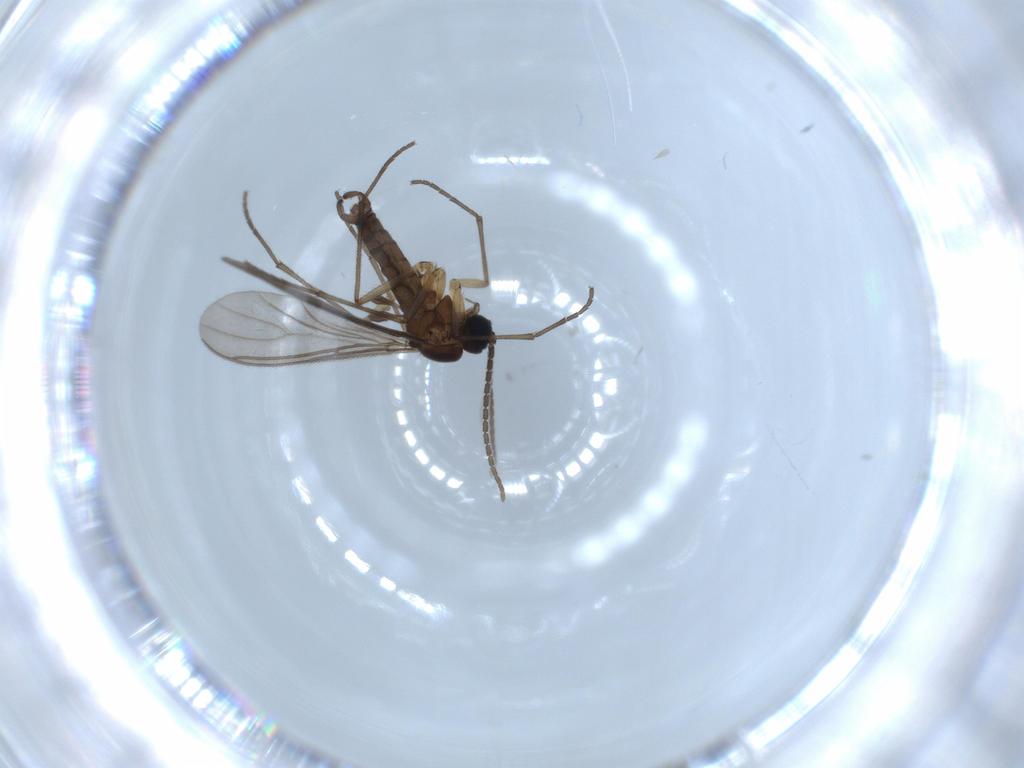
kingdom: Animalia
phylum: Arthropoda
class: Insecta
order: Diptera
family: Sciaridae
